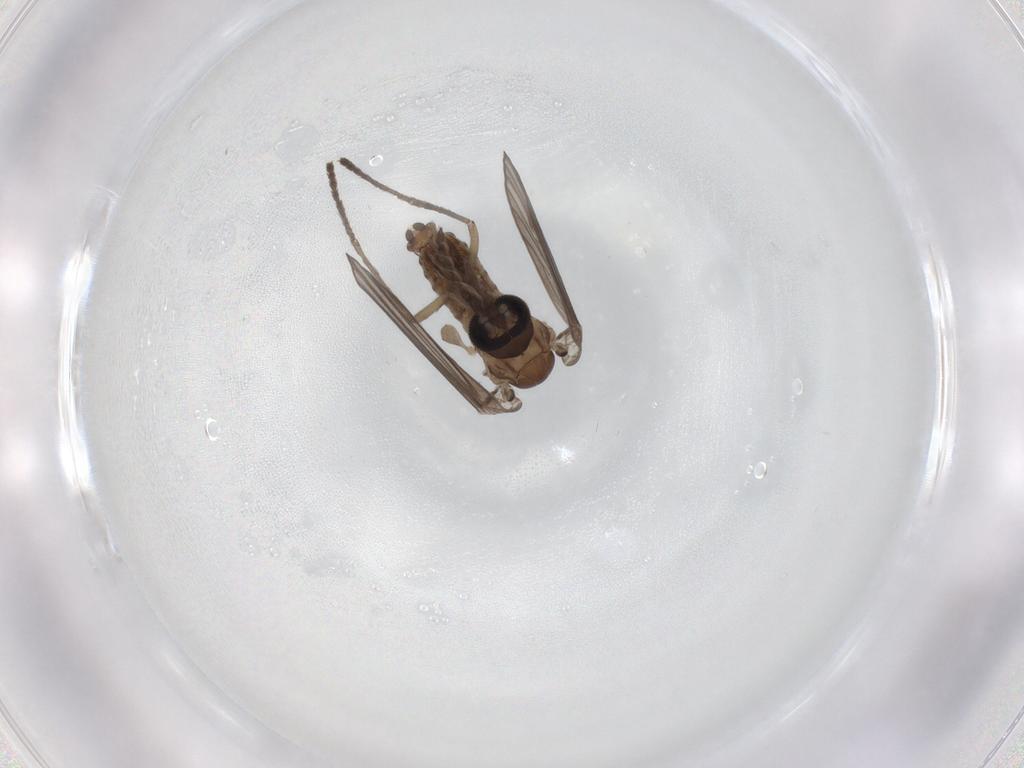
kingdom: Animalia
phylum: Arthropoda
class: Insecta
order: Diptera
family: Psychodidae
